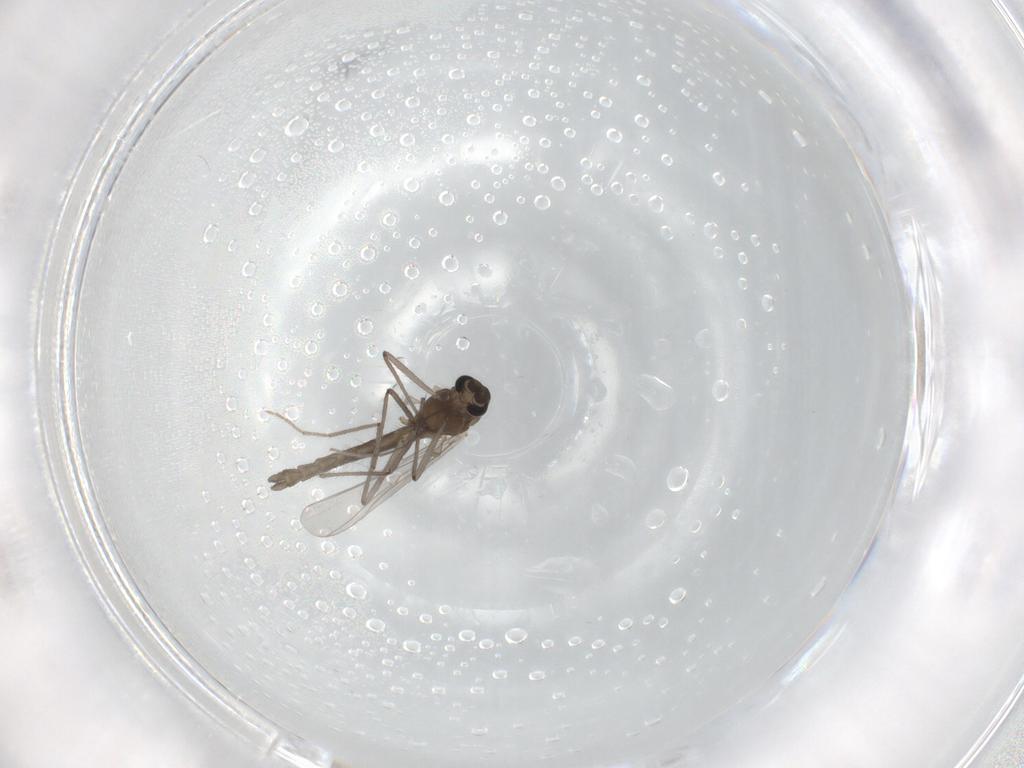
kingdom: Animalia
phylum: Arthropoda
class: Insecta
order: Diptera
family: Chironomidae
